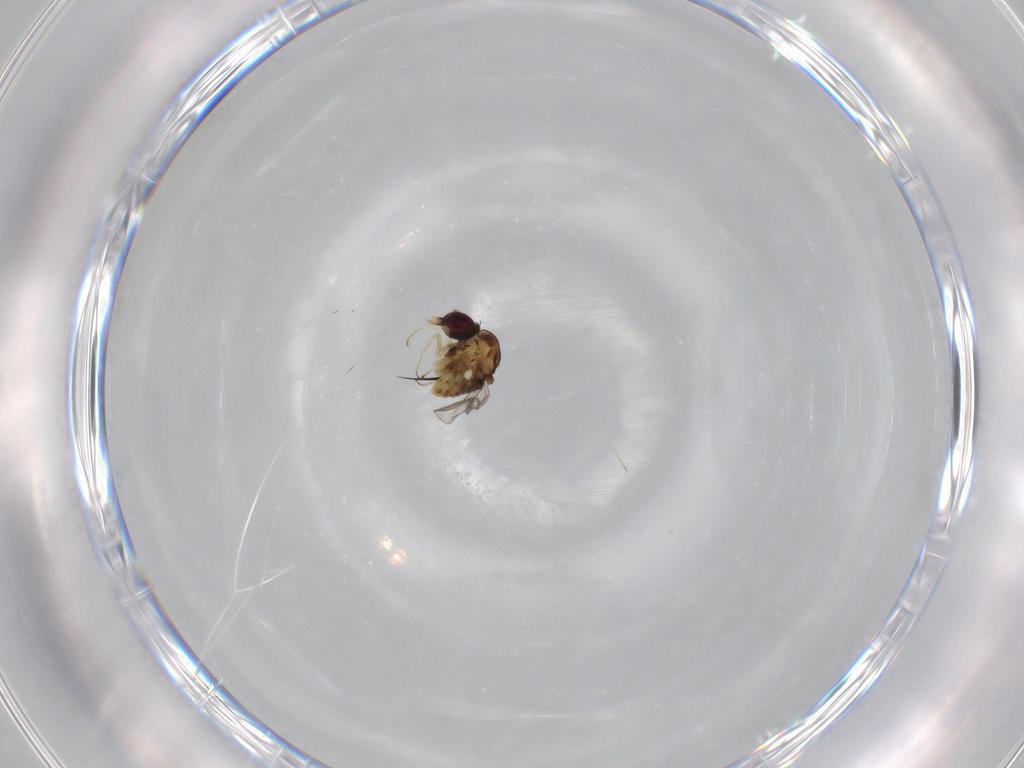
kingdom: Animalia
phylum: Arthropoda
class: Insecta
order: Diptera
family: Bombyliidae
